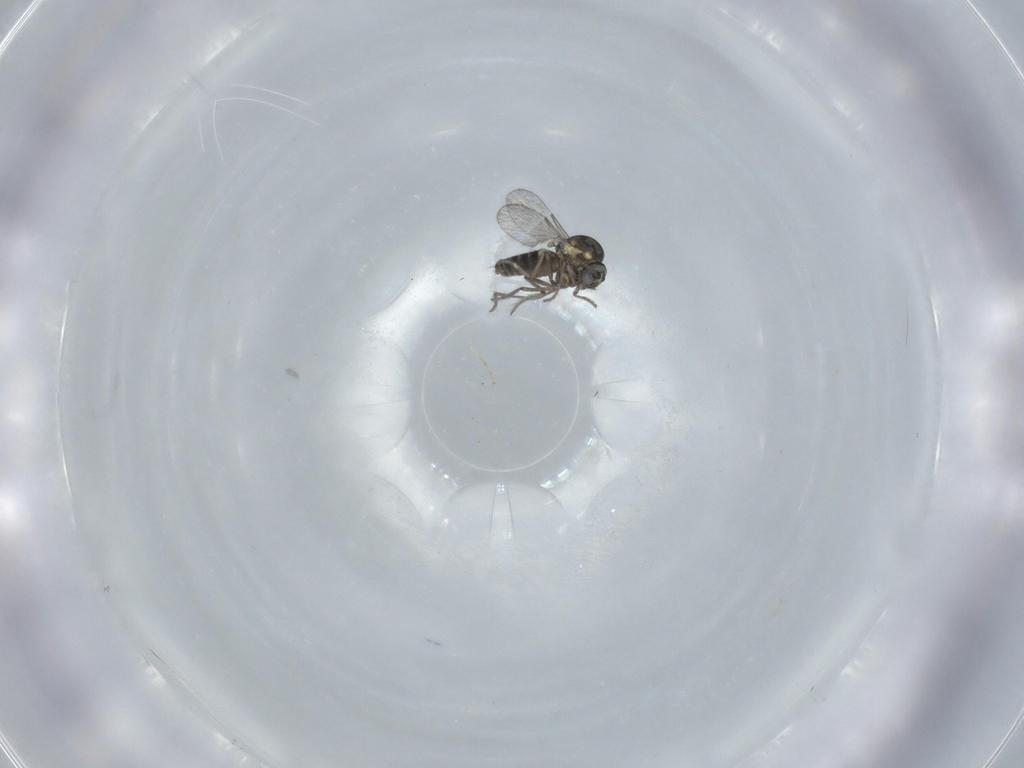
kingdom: Animalia
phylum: Arthropoda
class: Insecta
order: Diptera
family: Ceratopogonidae
